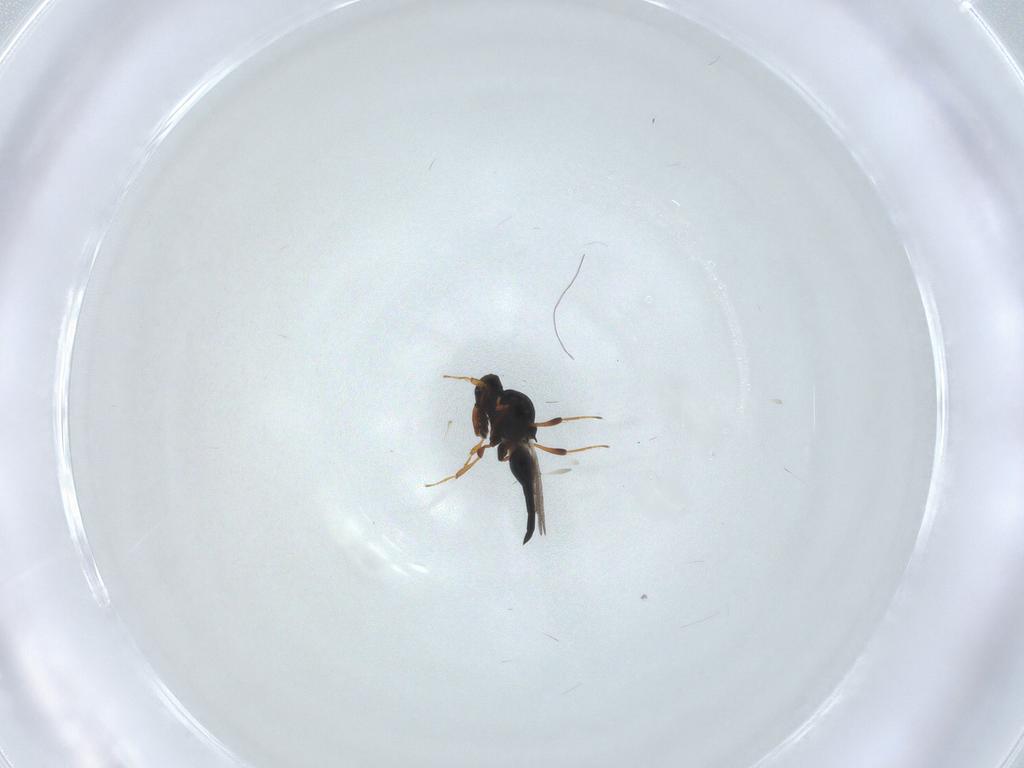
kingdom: Animalia
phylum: Arthropoda
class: Insecta
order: Hymenoptera
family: Platygastridae
